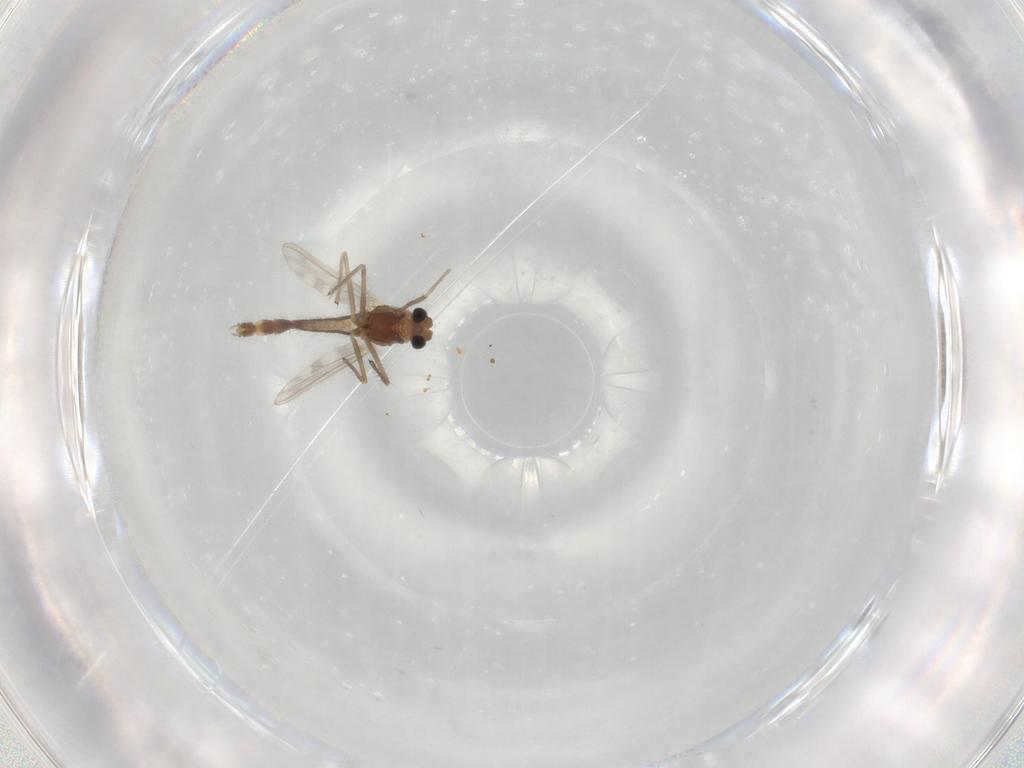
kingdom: Animalia
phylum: Arthropoda
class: Insecta
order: Diptera
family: Chironomidae
